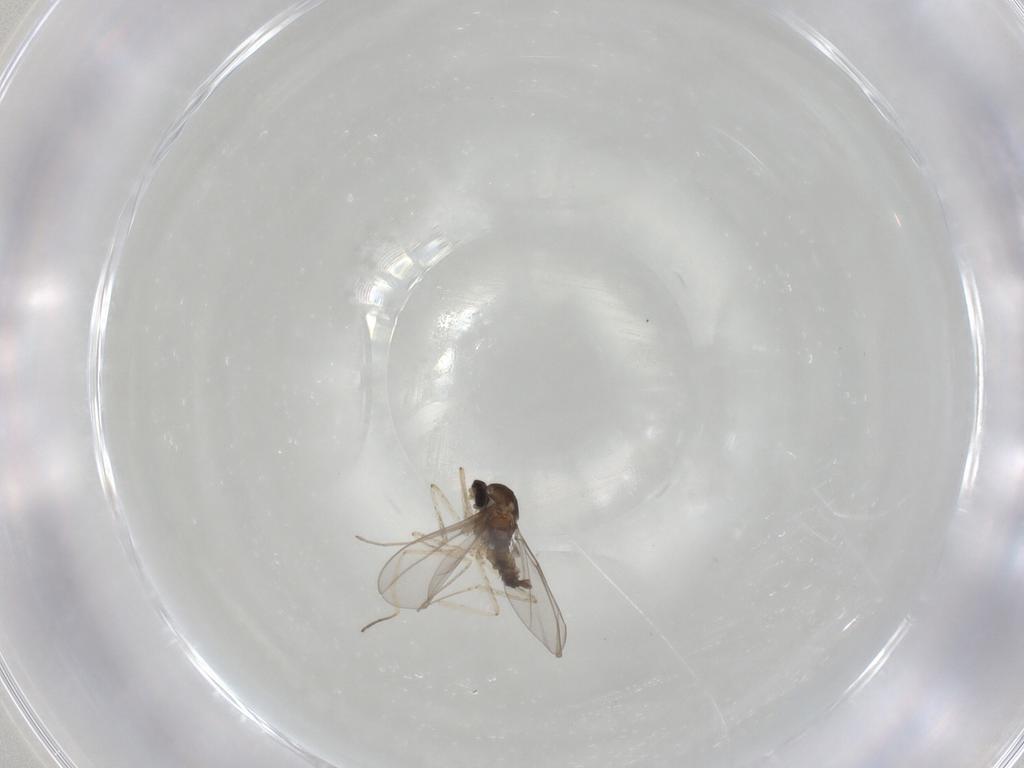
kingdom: Animalia
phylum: Arthropoda
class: Insecta
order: Diptera
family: Cecidomyiidae
